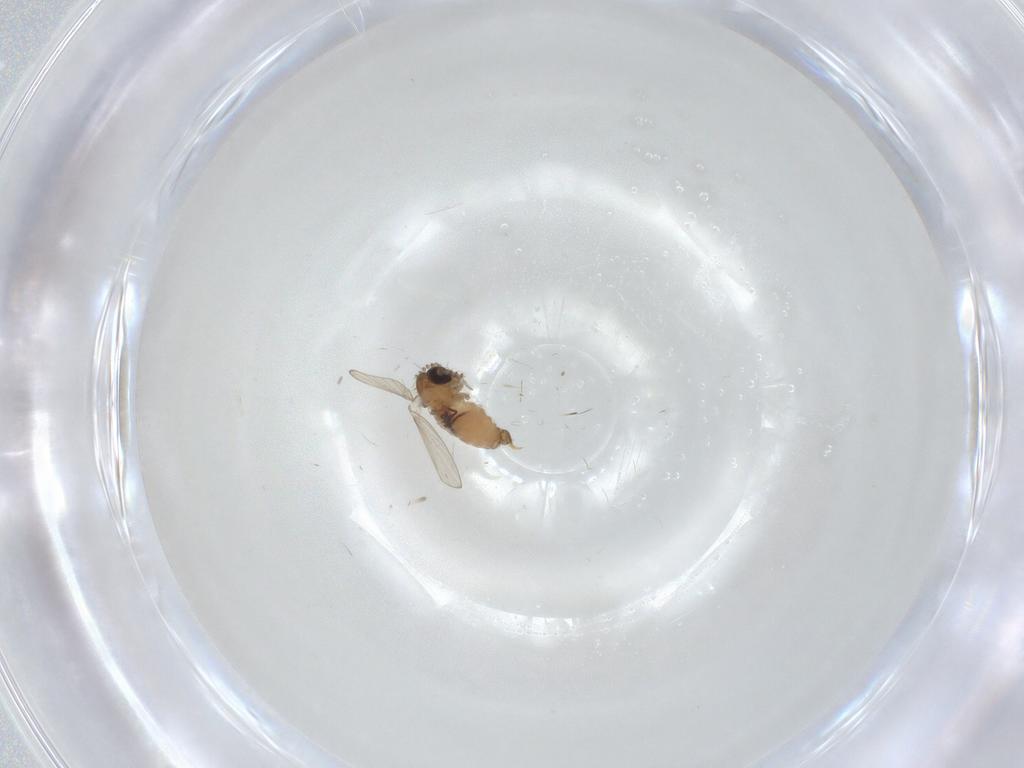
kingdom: Animalia
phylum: Arthropoda
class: Insecta
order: Diptera
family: Psychodidae
